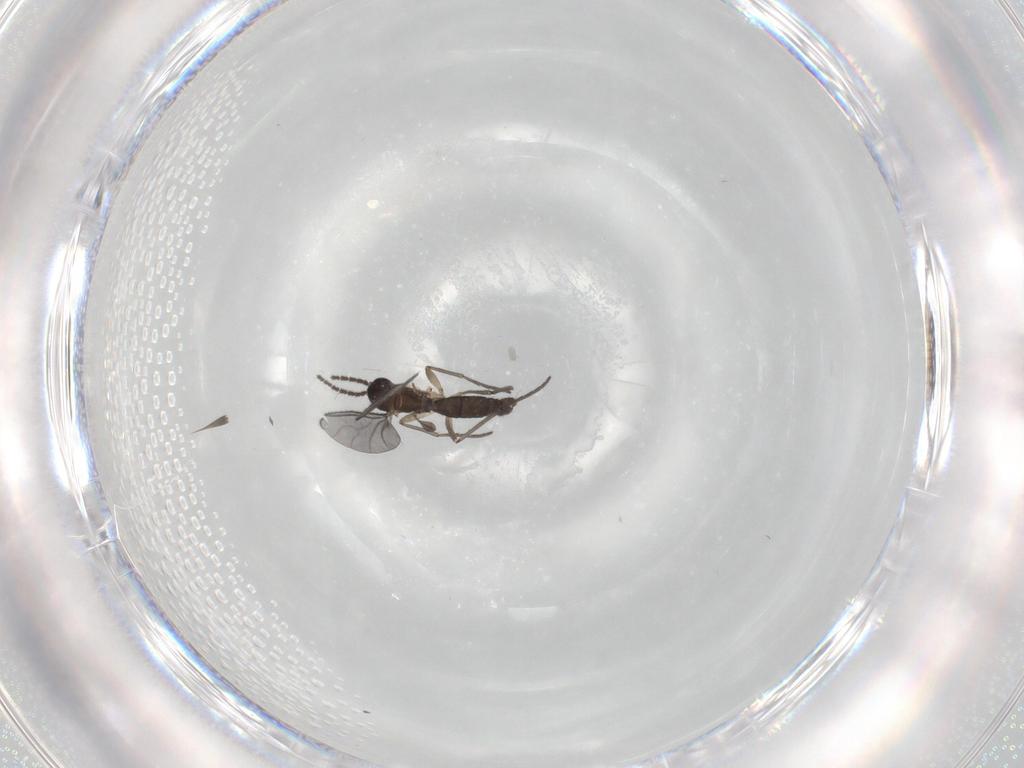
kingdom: Animalia
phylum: Arthropoda
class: Insecta
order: Diptera
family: Sciaridae
